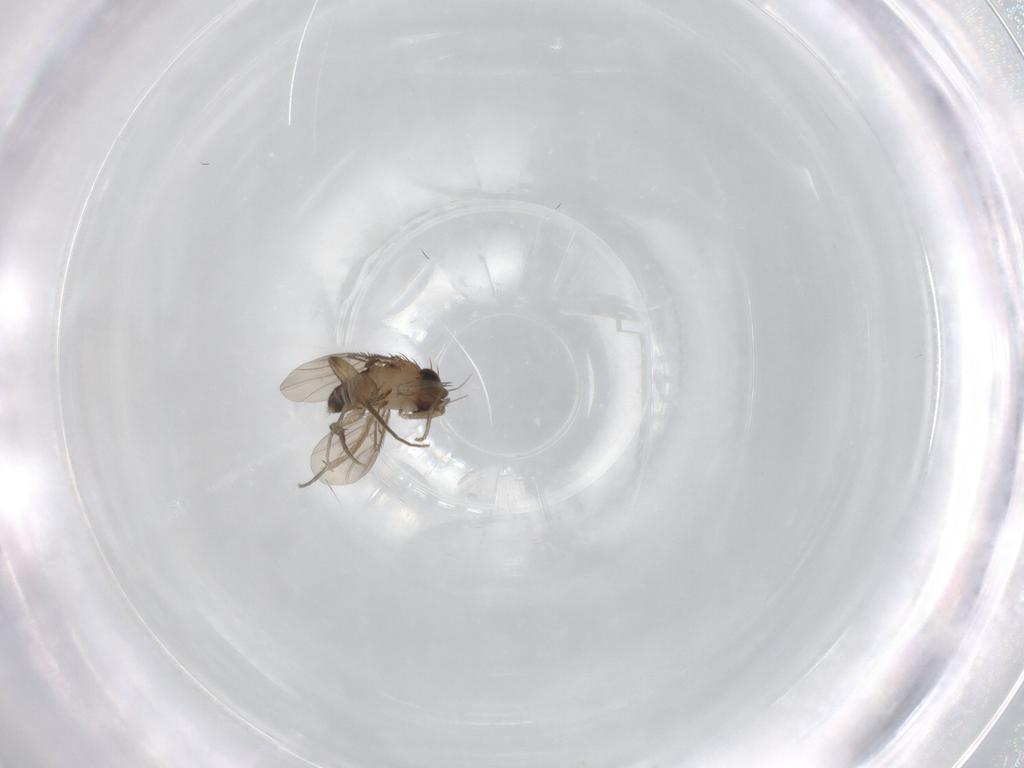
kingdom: Animalia
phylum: Arthropoda
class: Insecta
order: Diptera
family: Phoridae
